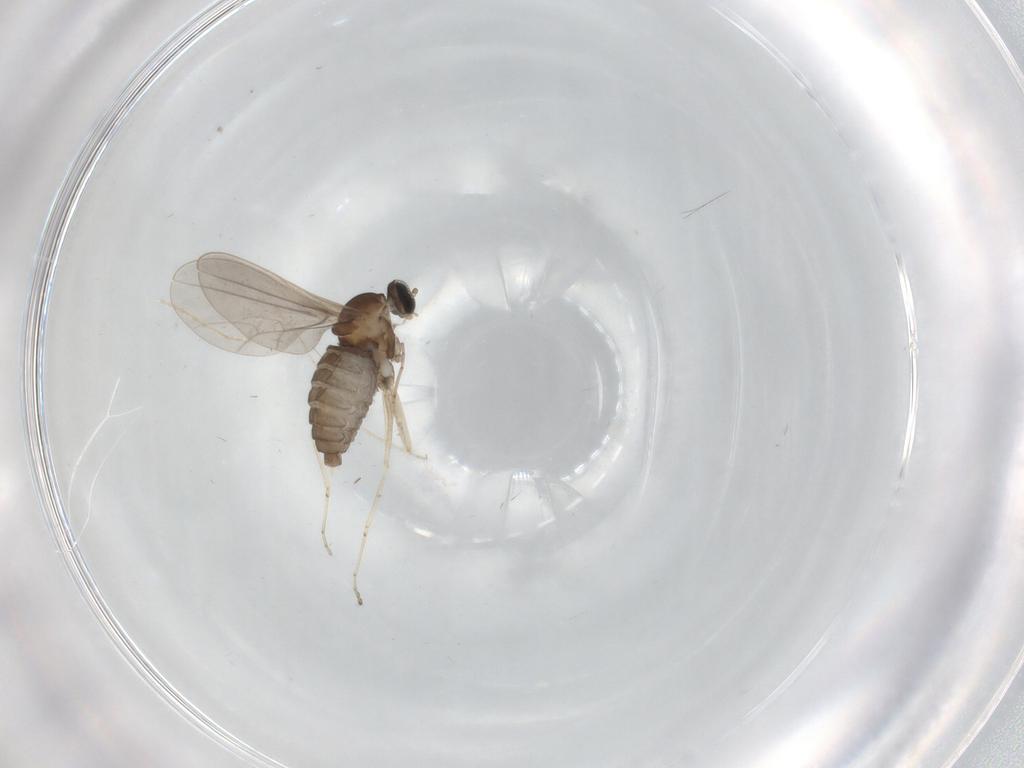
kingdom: Animalia
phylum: Arthropoda
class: Insecta
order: Diptera
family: Cecidomyiidae
